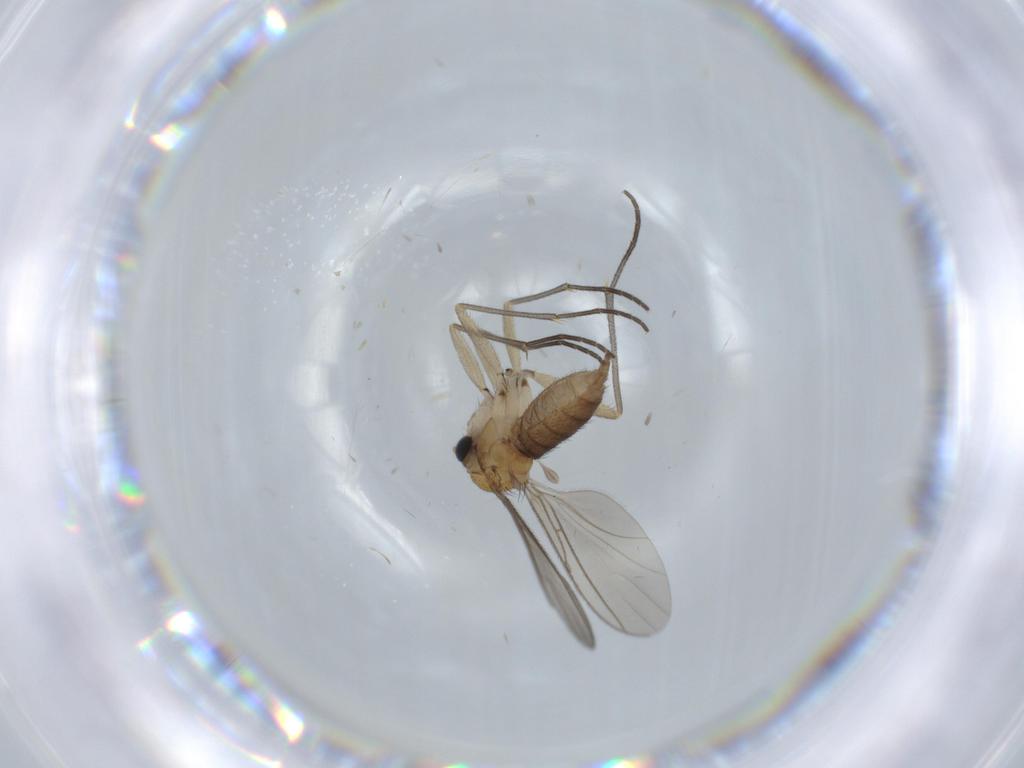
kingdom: Animalia
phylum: Arthropoda
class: Insecta
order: Diptera
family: Sciaridae
